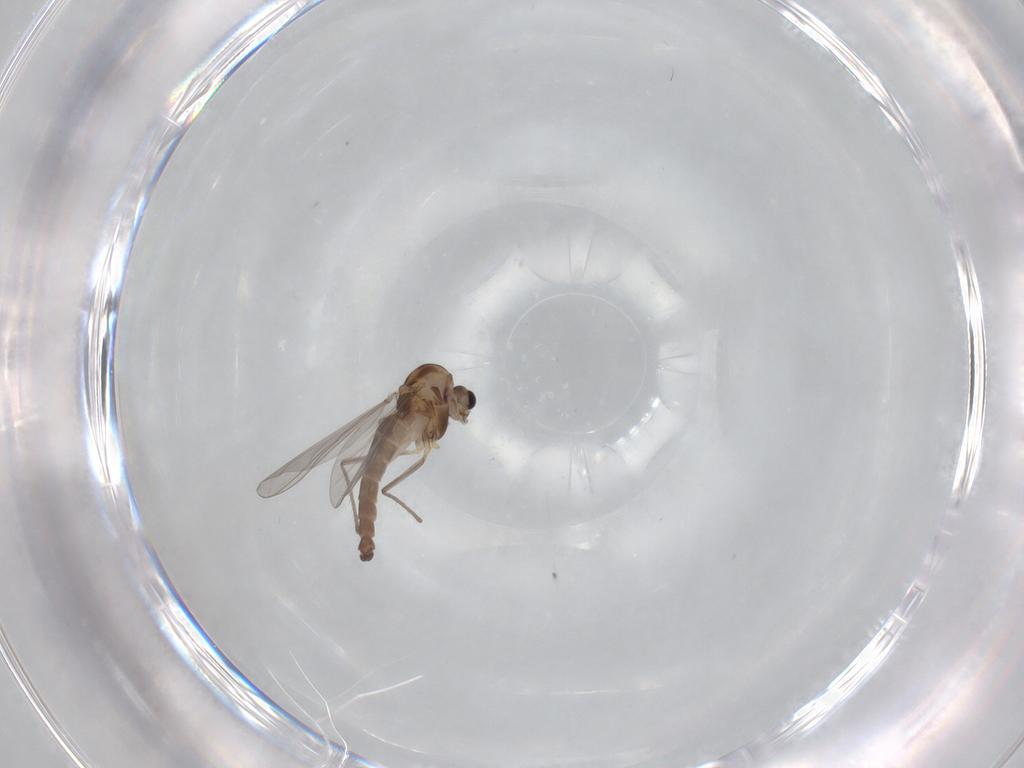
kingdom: Animalia
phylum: Arthropoda
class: Insecta
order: Diptera
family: Chironomidae
